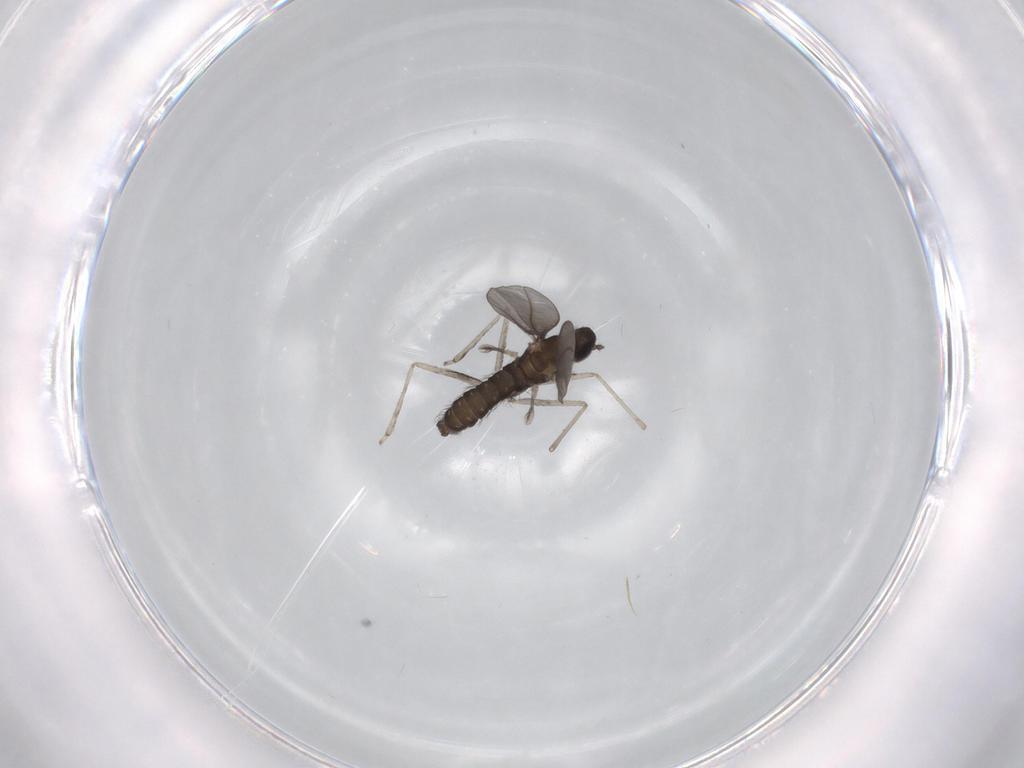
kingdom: Animalia
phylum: Arthropoda
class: Insecta
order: Diptera
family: Cecidomyiidae
